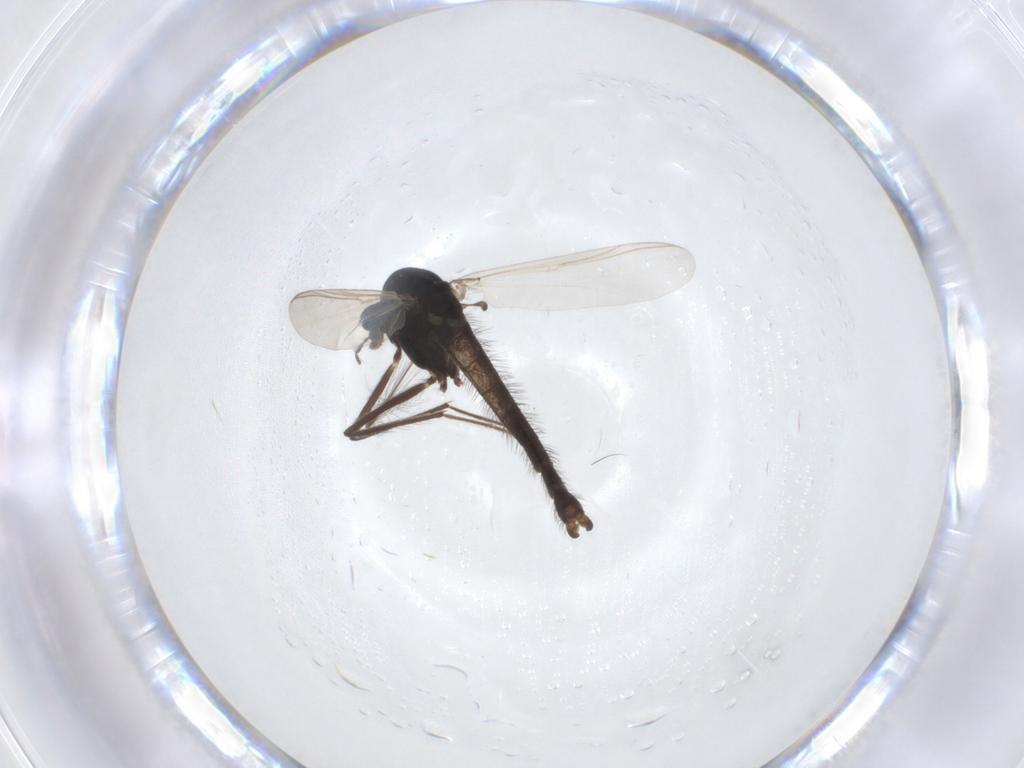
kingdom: Animalia
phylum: Arthropoda
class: Insecta
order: Diptera
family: Chironomidae
